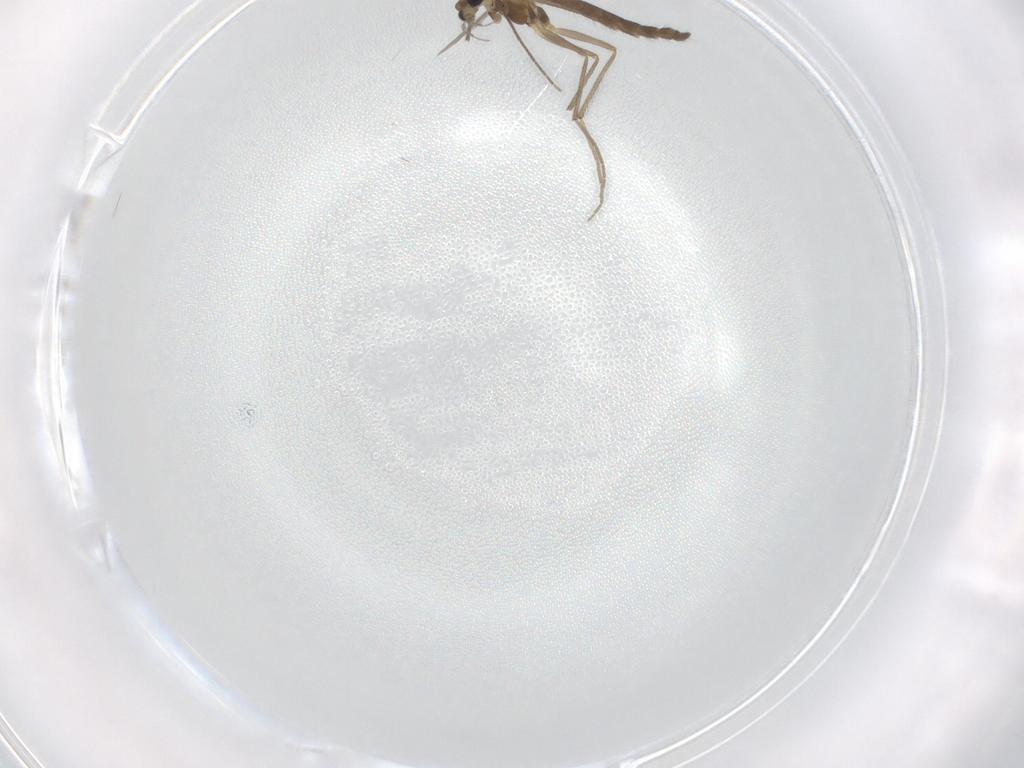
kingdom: Animalia
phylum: Arthropoda
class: Insecta
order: Diptera
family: Chironomidae
